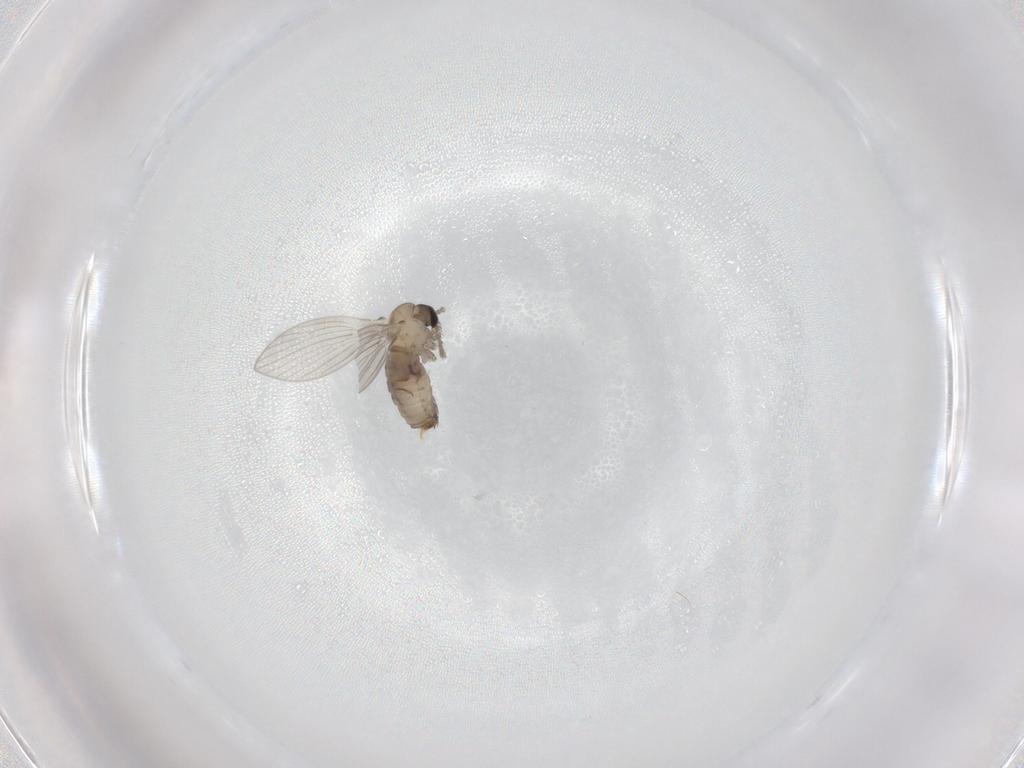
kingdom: Animalia
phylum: Arthropoda
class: Insecta
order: Diptera
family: Psychodidae
